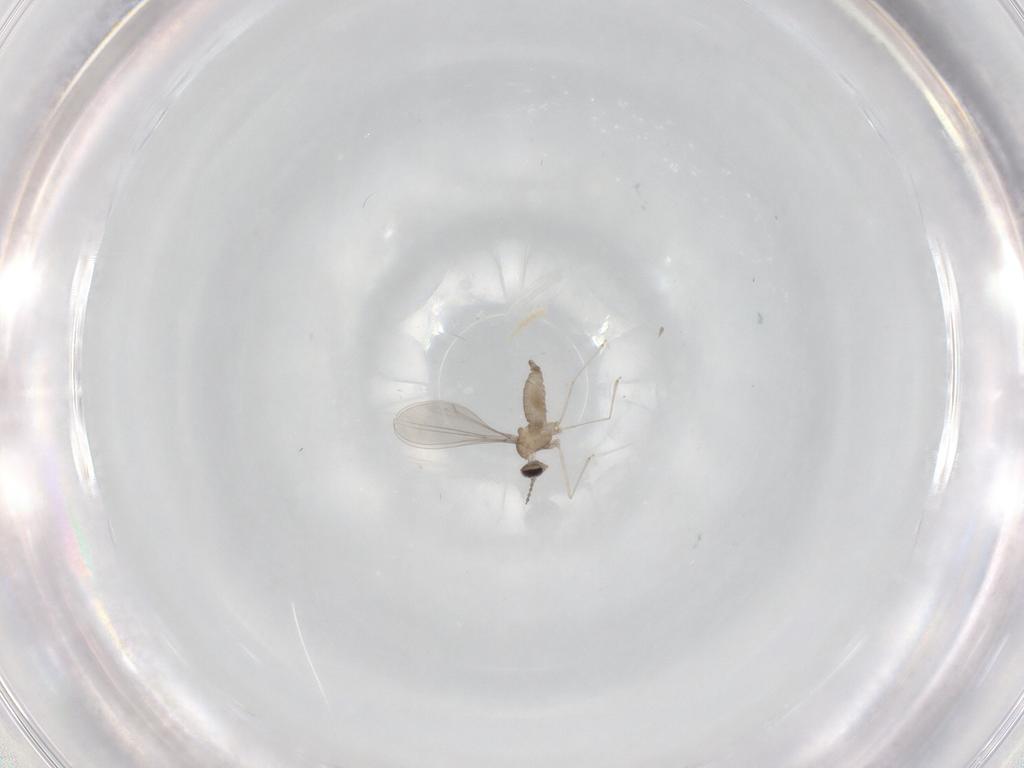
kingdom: Animalia
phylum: Arthropoda
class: Insecta
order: Diptera
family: Cecidomyiidae
